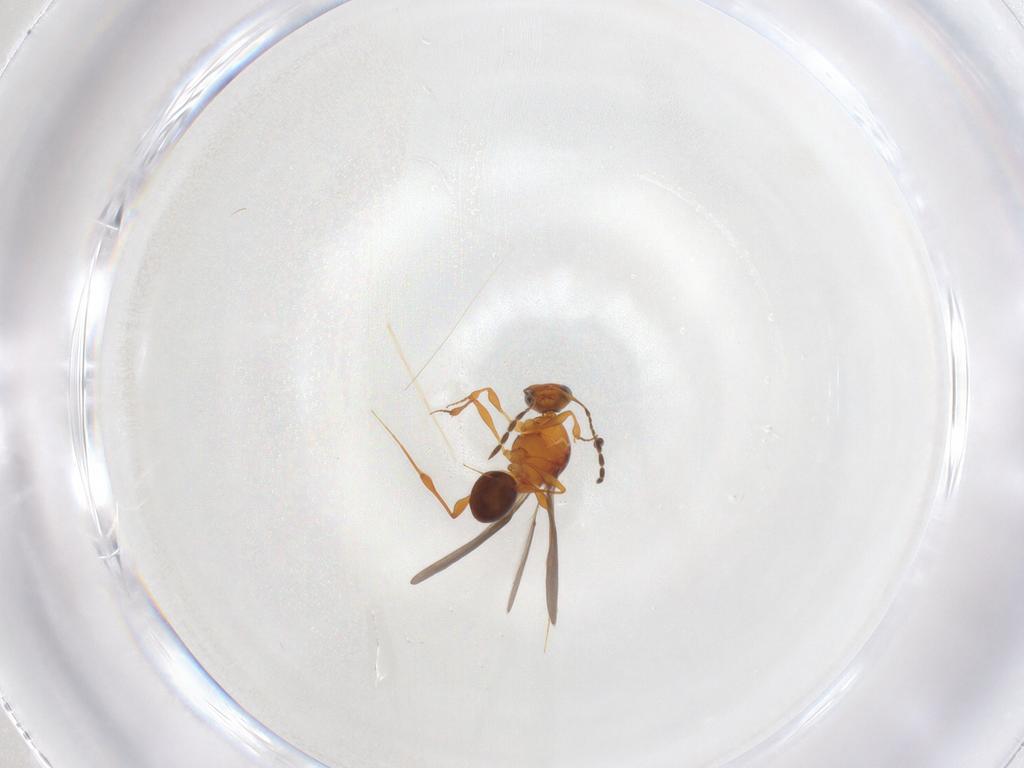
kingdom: Animalia
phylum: Arthropoda
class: Insecta
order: Hymenoptera
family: Platygastridae
